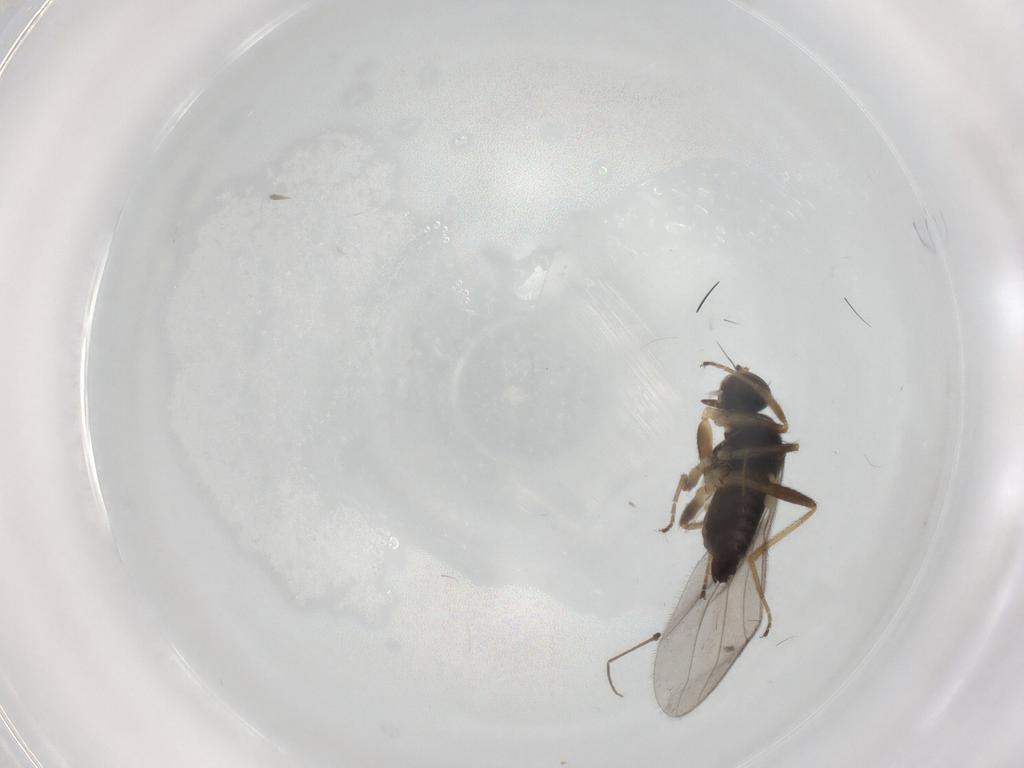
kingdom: Animalia
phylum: Arthropoda
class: Insecta
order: Diptera
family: Hybotidae
